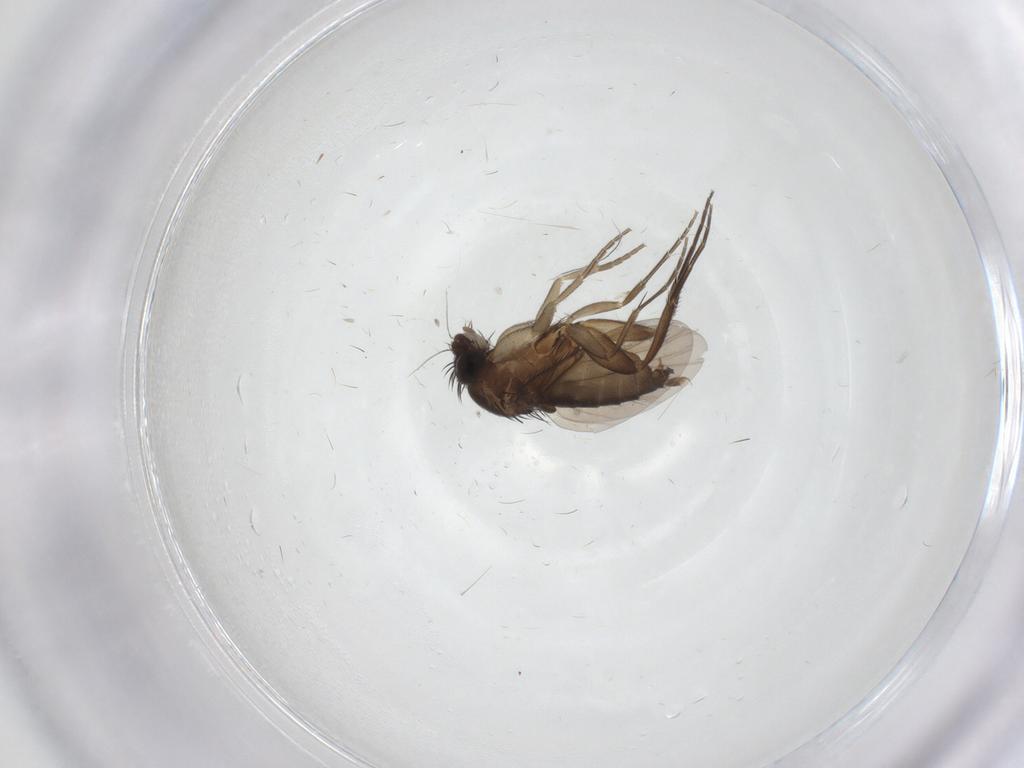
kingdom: Animalia
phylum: Arthropoda
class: Insecta
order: Diptera
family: Phoridae
